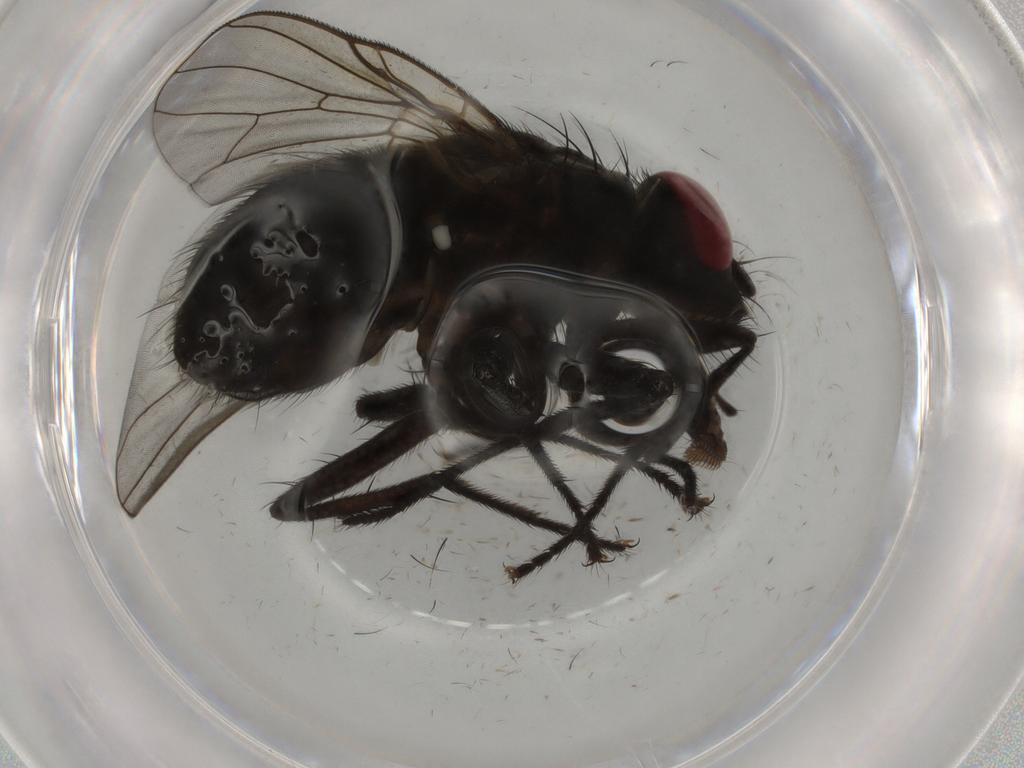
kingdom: Animalia
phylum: Arthropoda
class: Insecta
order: Diptera
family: Muscidae
